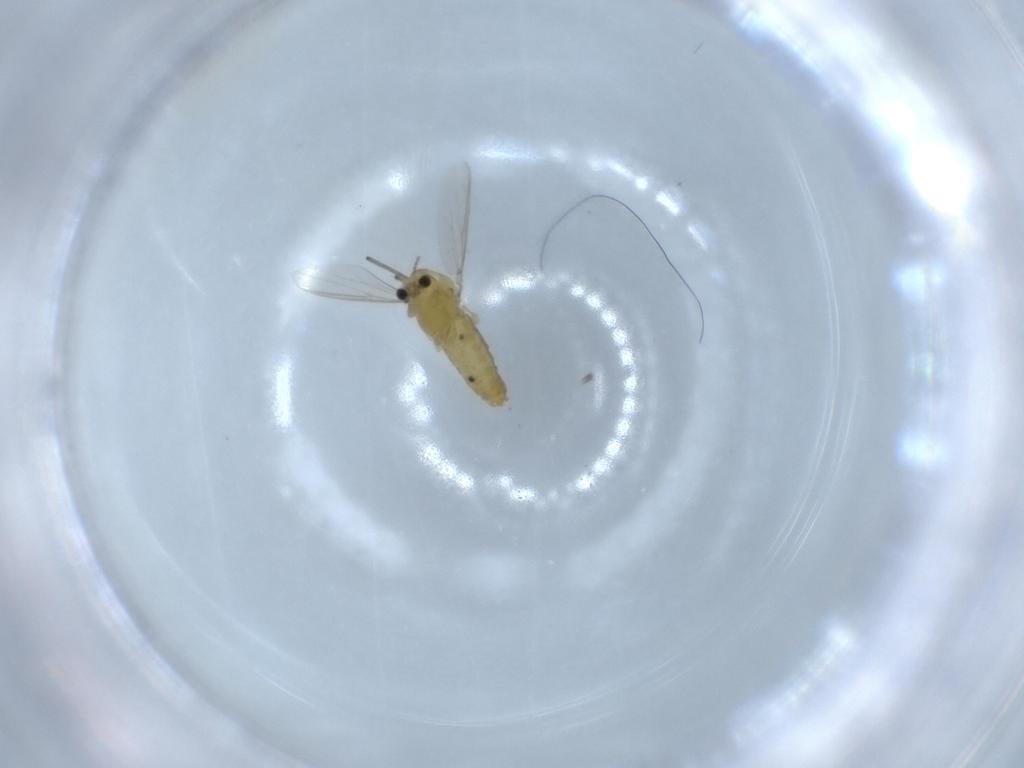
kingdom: Animalia
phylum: Arthropoda
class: Insecta
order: Diptera
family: Chironomidae
